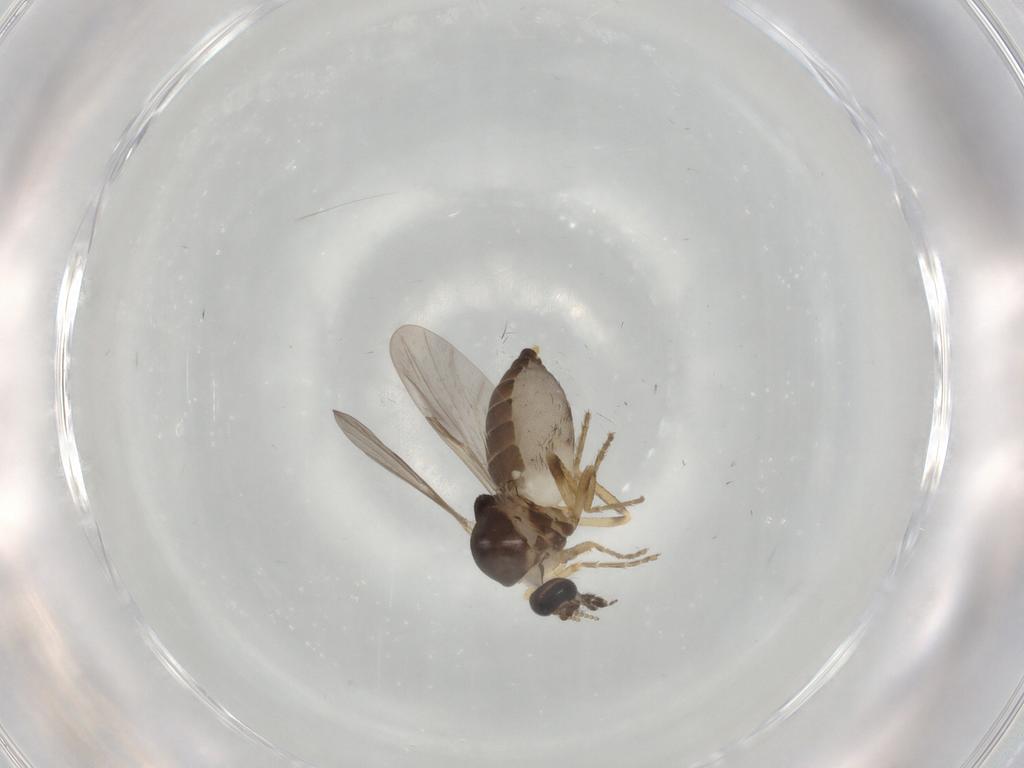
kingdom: Animalia
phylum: Arthropoda
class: Insecta
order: Diptera
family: Ceratopogonidae
